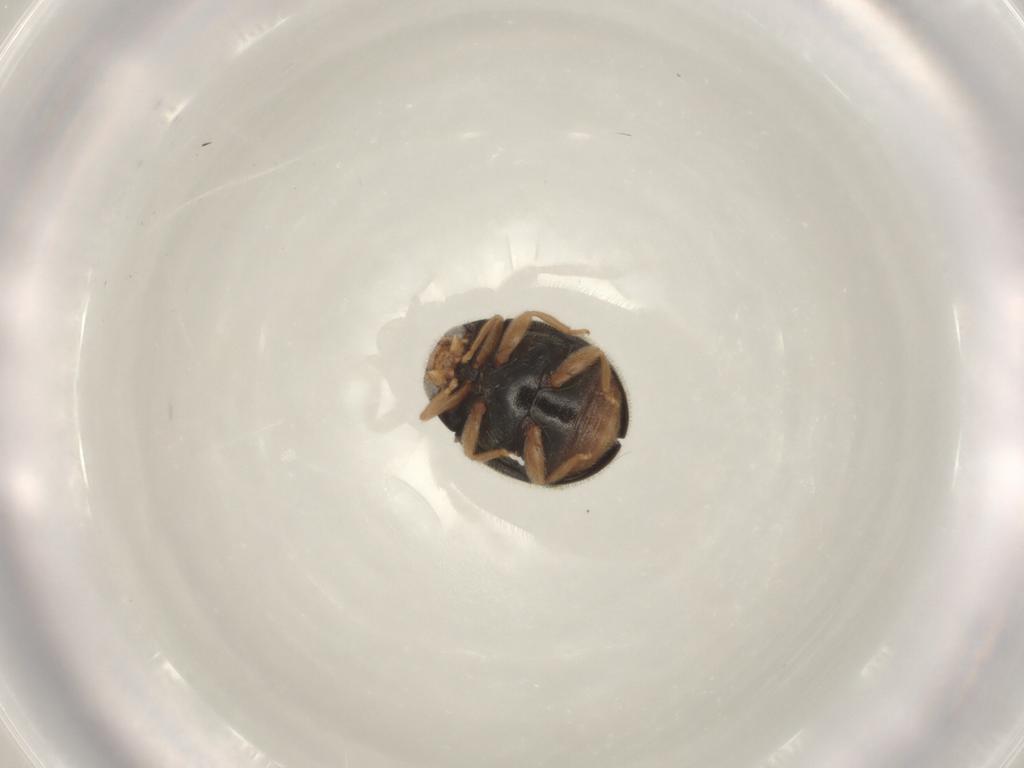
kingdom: Animalia
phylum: Arthropoda
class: Insecta
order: Coleoptera
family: Coccinellidae
